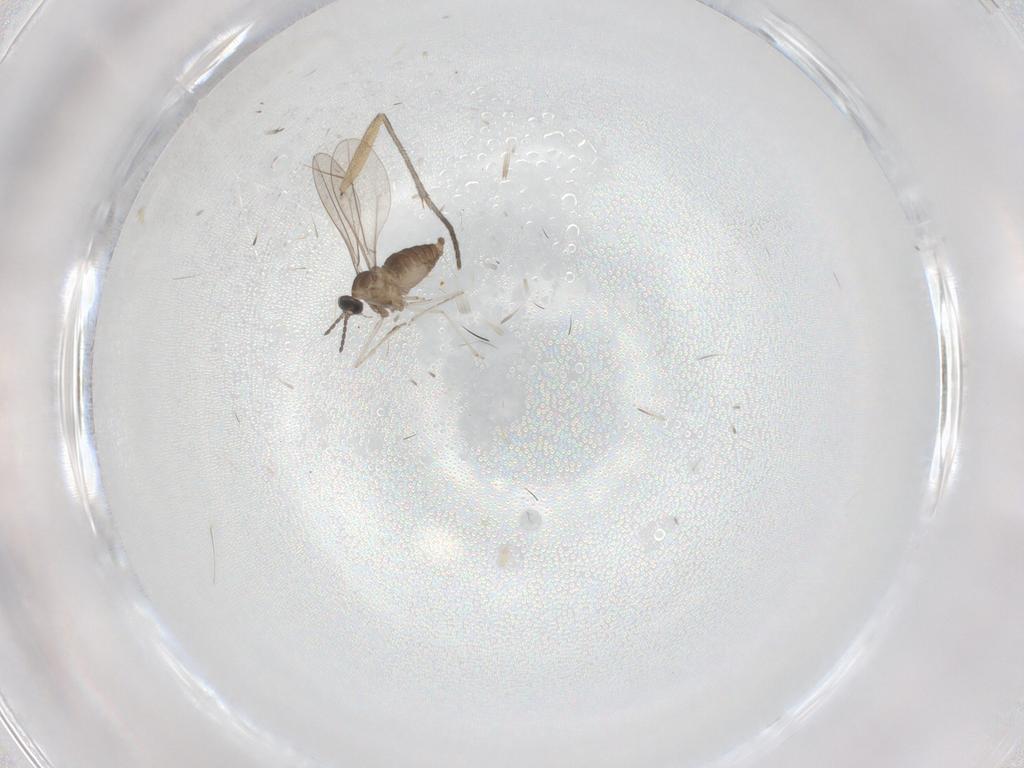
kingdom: Animalia
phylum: Arthropoda
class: Insecta
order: Diptera
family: Cecidomyiidae
